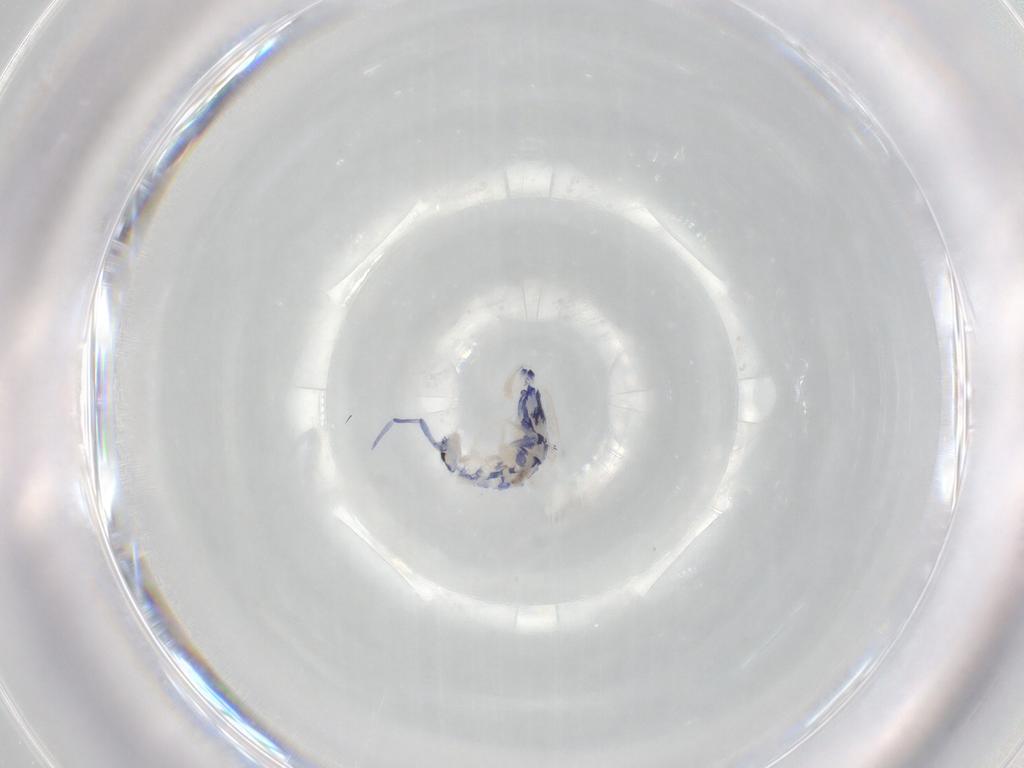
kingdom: Animalia
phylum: Arthropoda
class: Collembola
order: Entomobryomorpha
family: Entomobryidae
